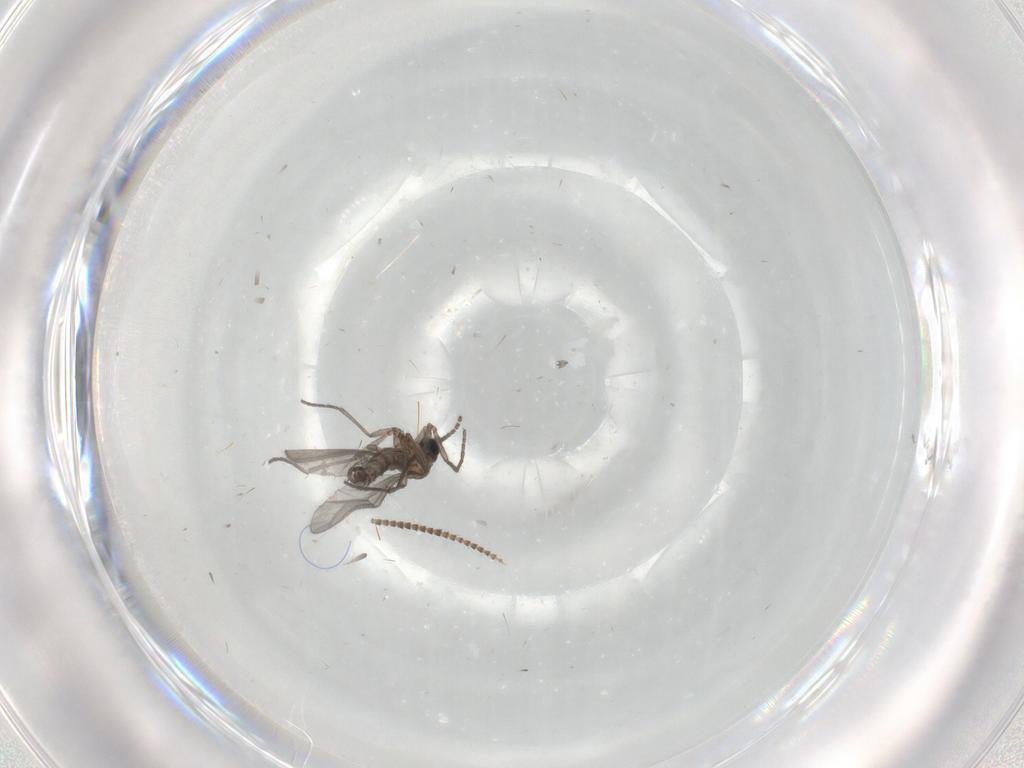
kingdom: Animalia
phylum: Arthropoda
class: Insecta
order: Diptera
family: Sciaridae
